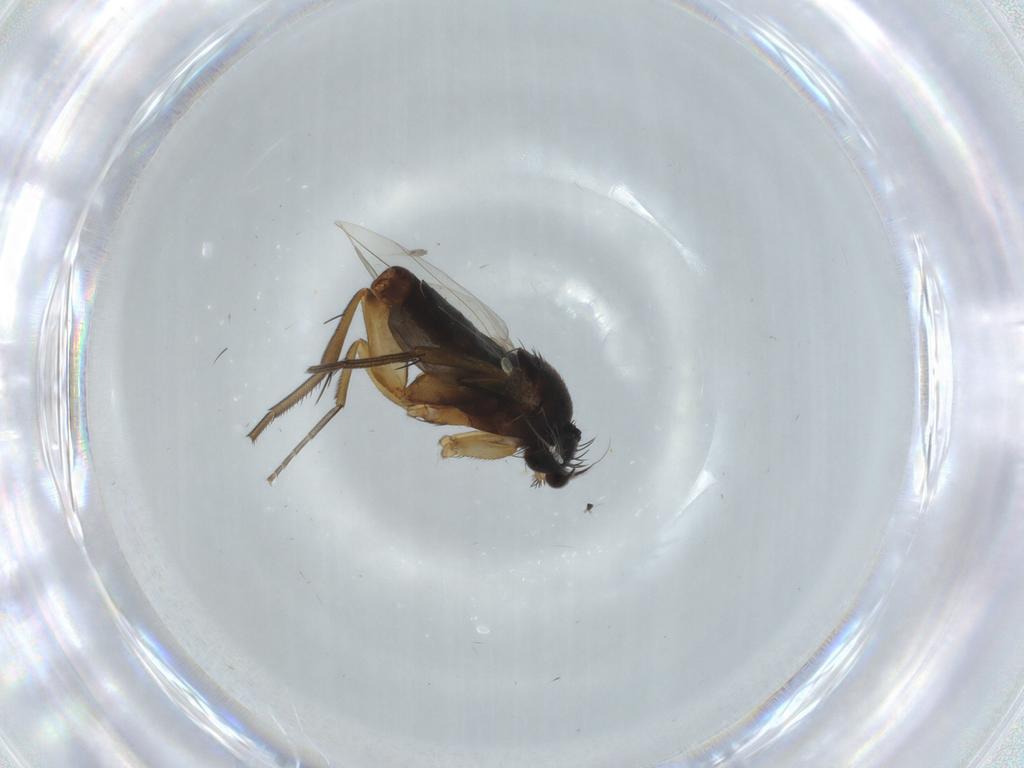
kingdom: Animalia
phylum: Arthropoda
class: Insecta
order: Diptera
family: Phoridae
